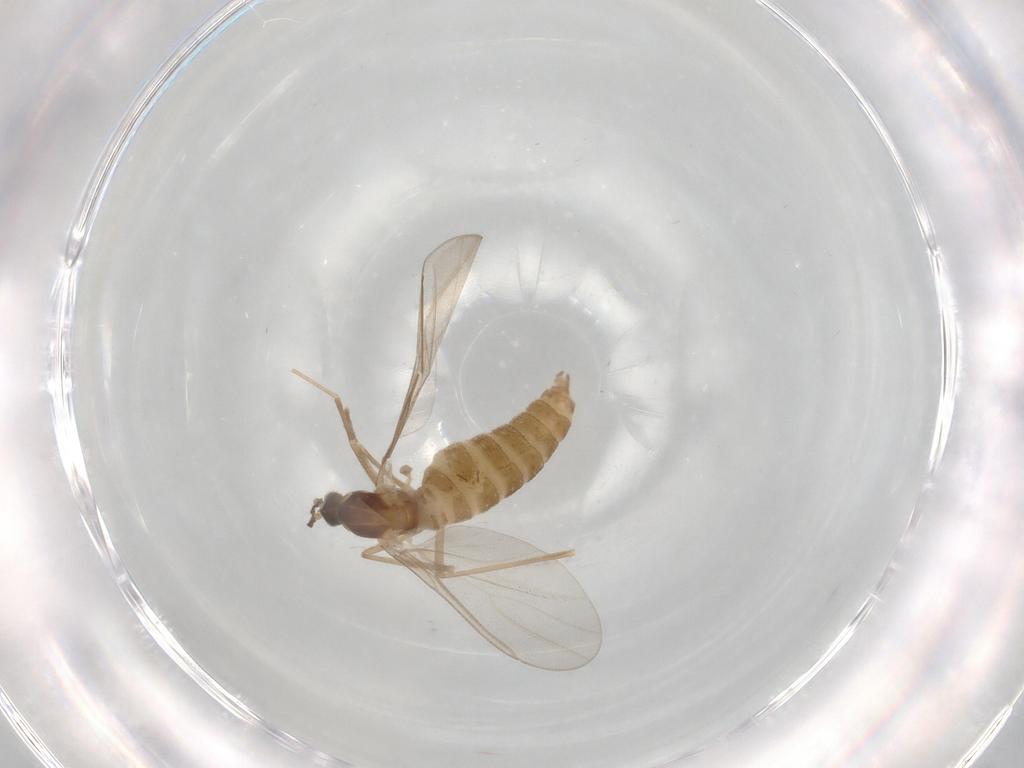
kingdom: Animalia
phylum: Arthropoda
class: Insecta
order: Diptera
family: Cecidomyiidae
